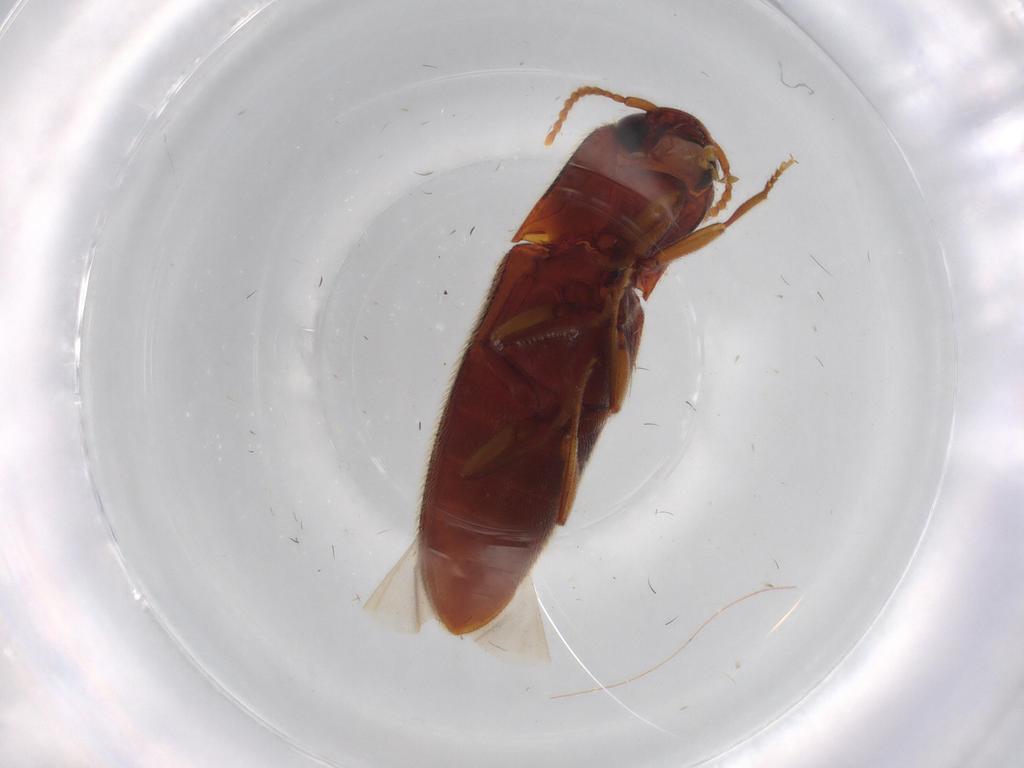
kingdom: Animalia
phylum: Arthropoda
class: Insecta
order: Coleoptera
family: Elateridae
